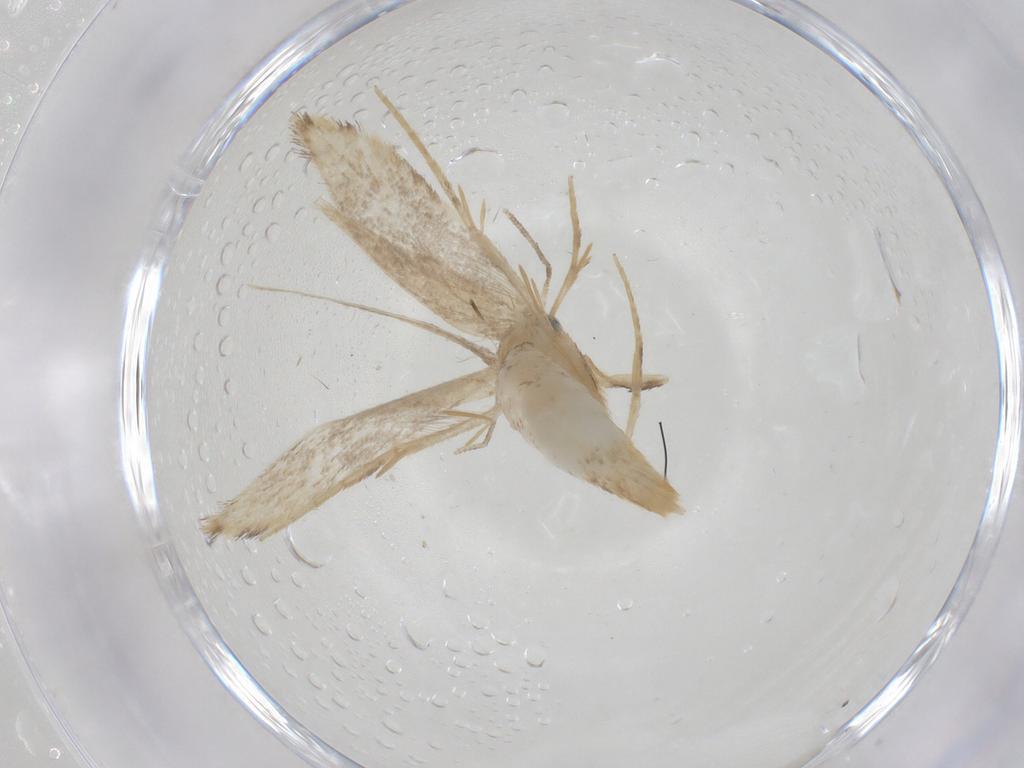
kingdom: Animalia
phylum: Arthropoda
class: Insecta
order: Lepidoptera
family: Bucculatricidae
